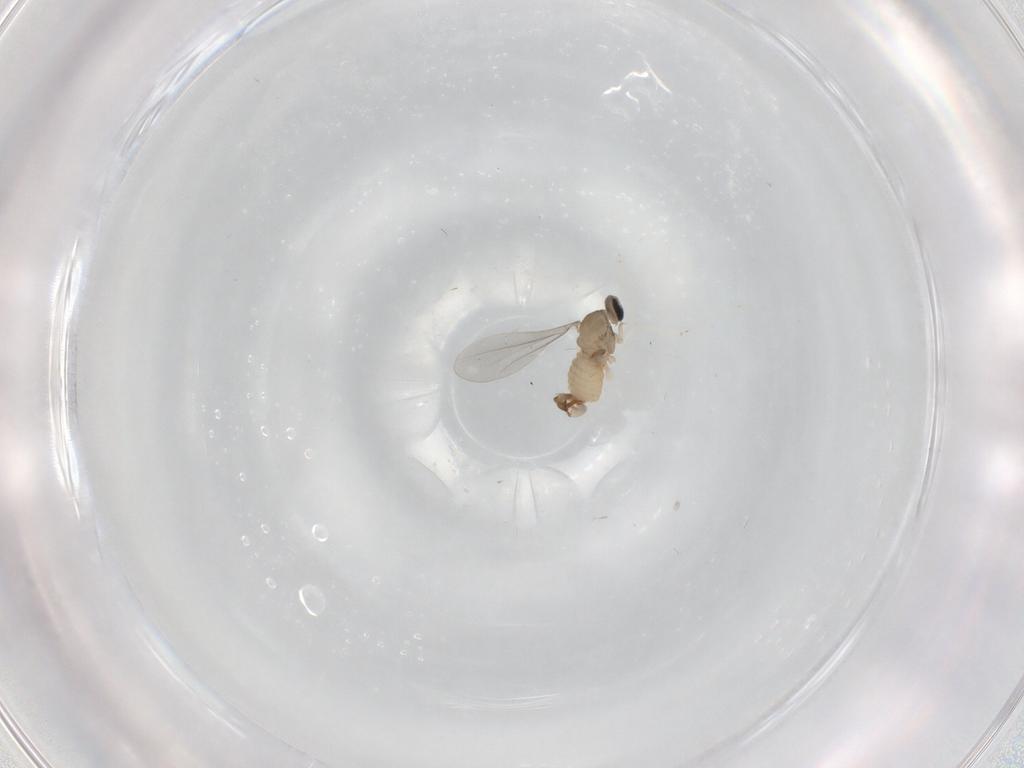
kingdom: Animalia
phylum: Arthropoda
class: Insecta
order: Diptera
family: Cecidomyiidae
